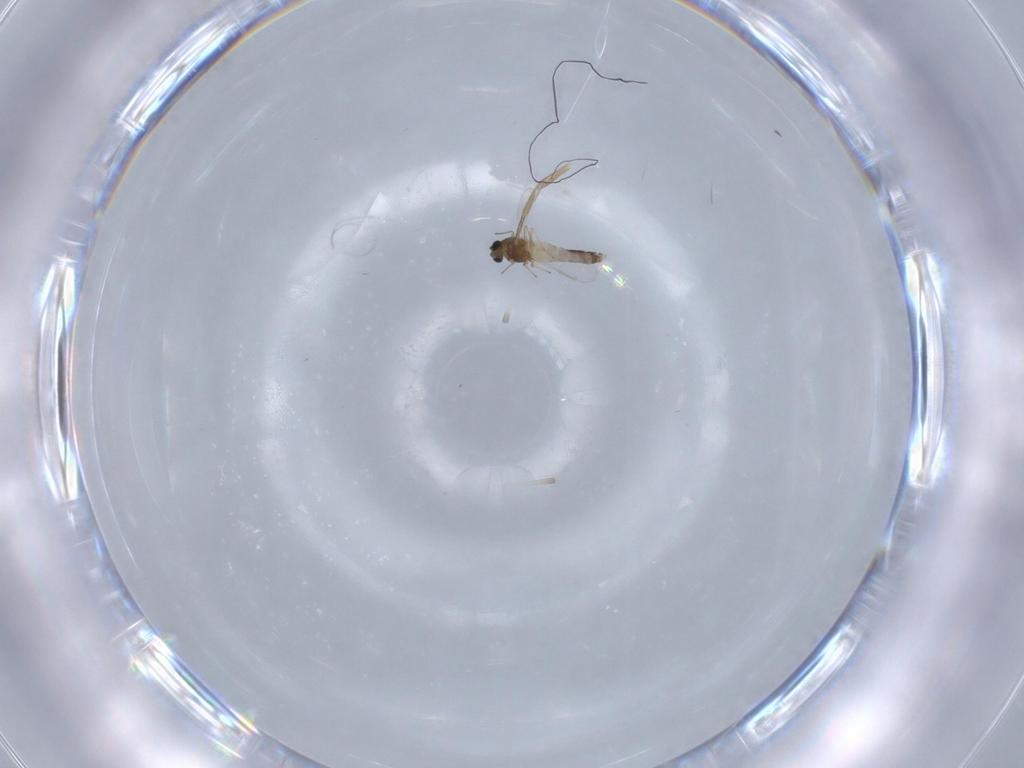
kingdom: Animalia
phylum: Arthropoda
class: Insecta
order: Diptera
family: Chironomidae
